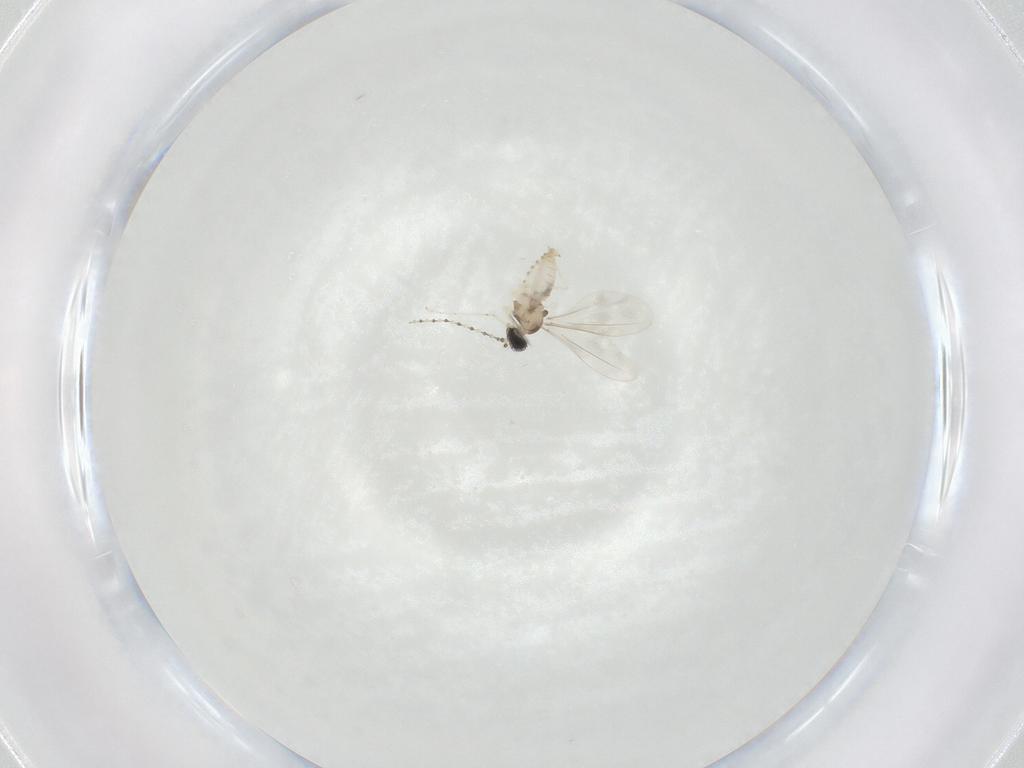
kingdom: Animalia
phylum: Arthropoda
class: Insecta
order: Diptera
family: Cecidomyiidae
